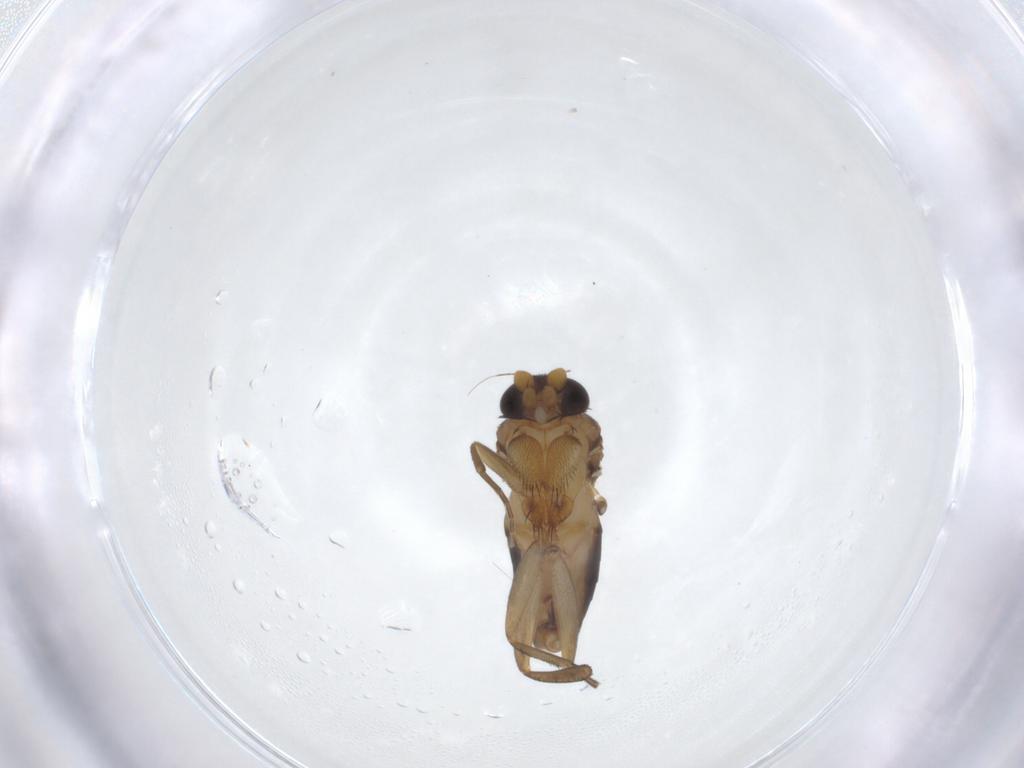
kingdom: Animalia
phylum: Arthropoda
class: Insecta
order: Diptera
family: Phoridae
